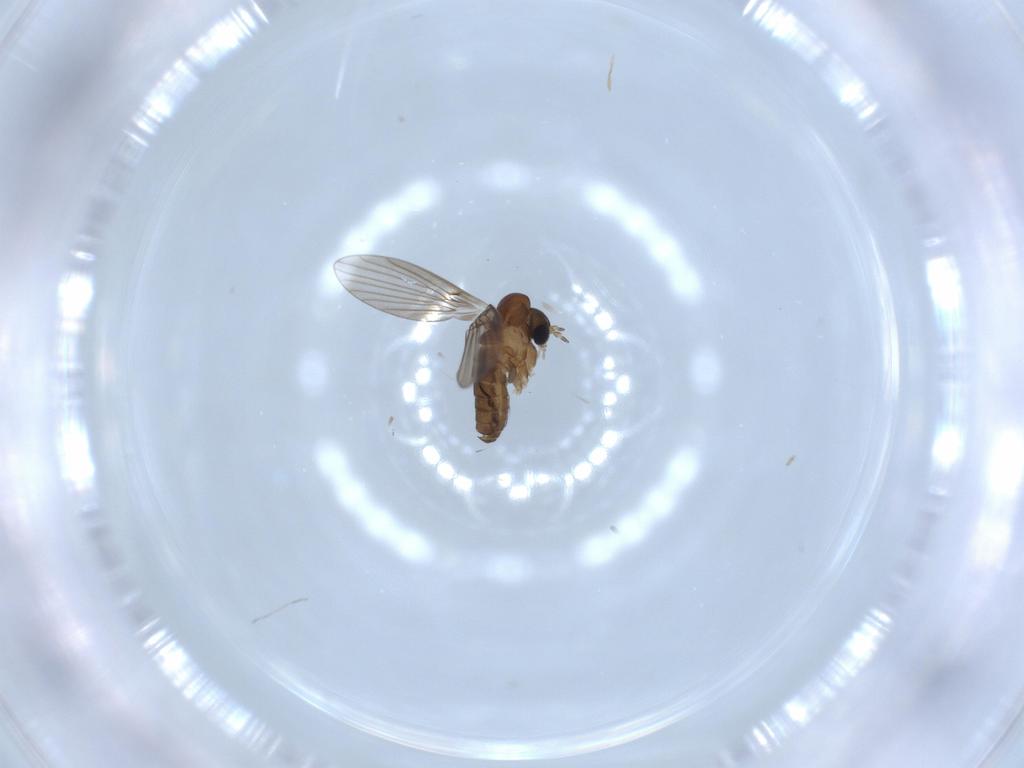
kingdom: Animalia
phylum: Arthropoda
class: Insecta
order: Diptera
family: Psychodidae
